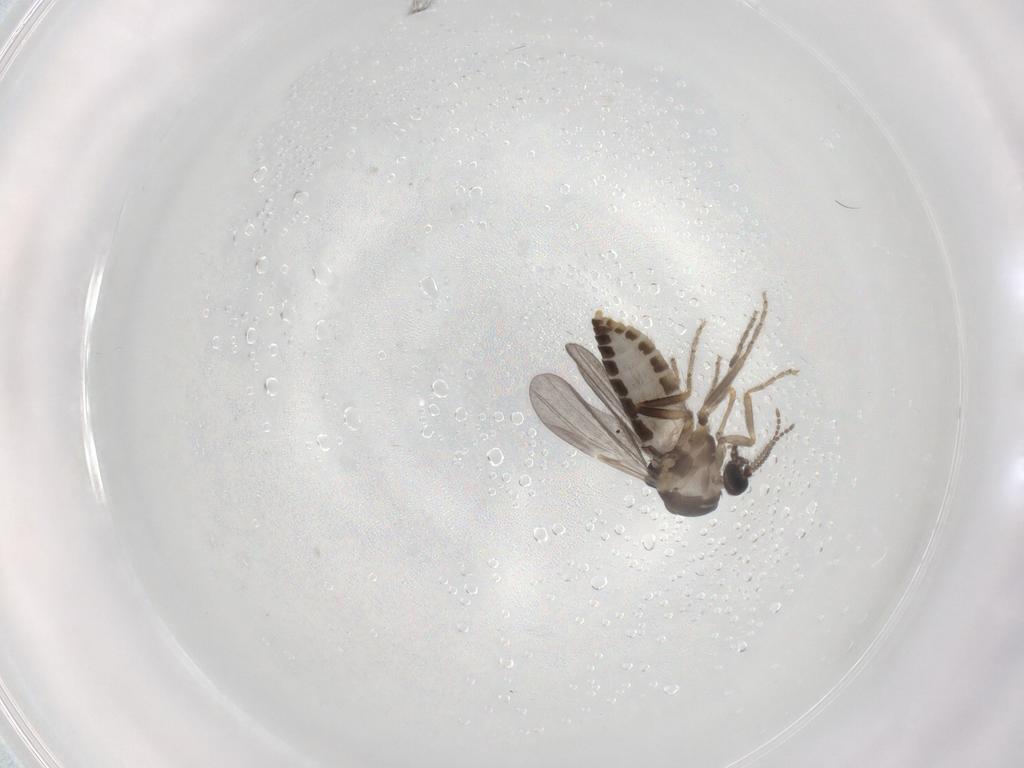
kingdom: Animalia
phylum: Arthropoda
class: Insecta
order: Diptera
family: Ceratopogonidae
